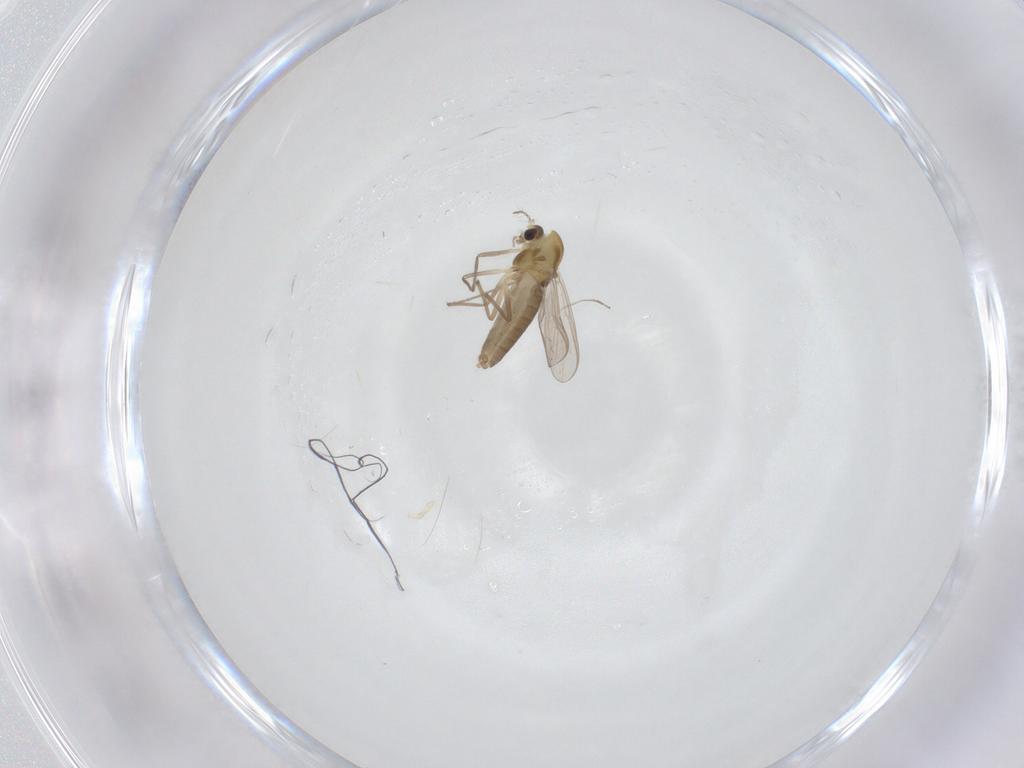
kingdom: Animalia
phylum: Arthropoda
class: Insecta
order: Diptera
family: Chironomidae
